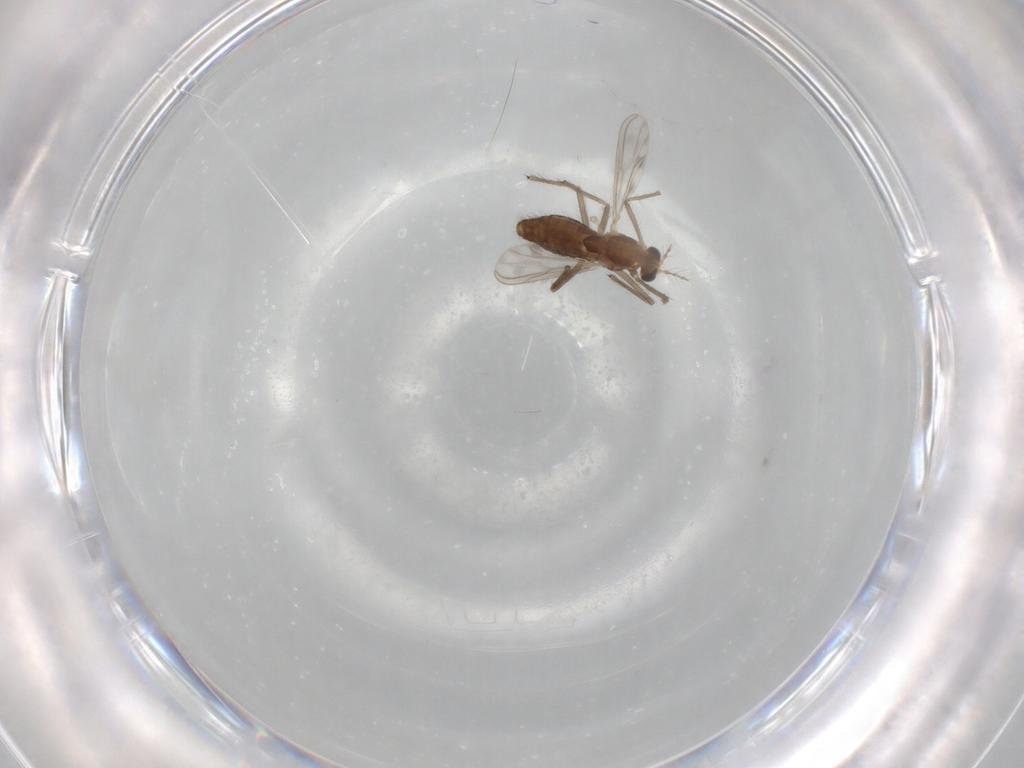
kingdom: Animalia
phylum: Arthropoda
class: Insecta
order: Diptera
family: Chironomidae
